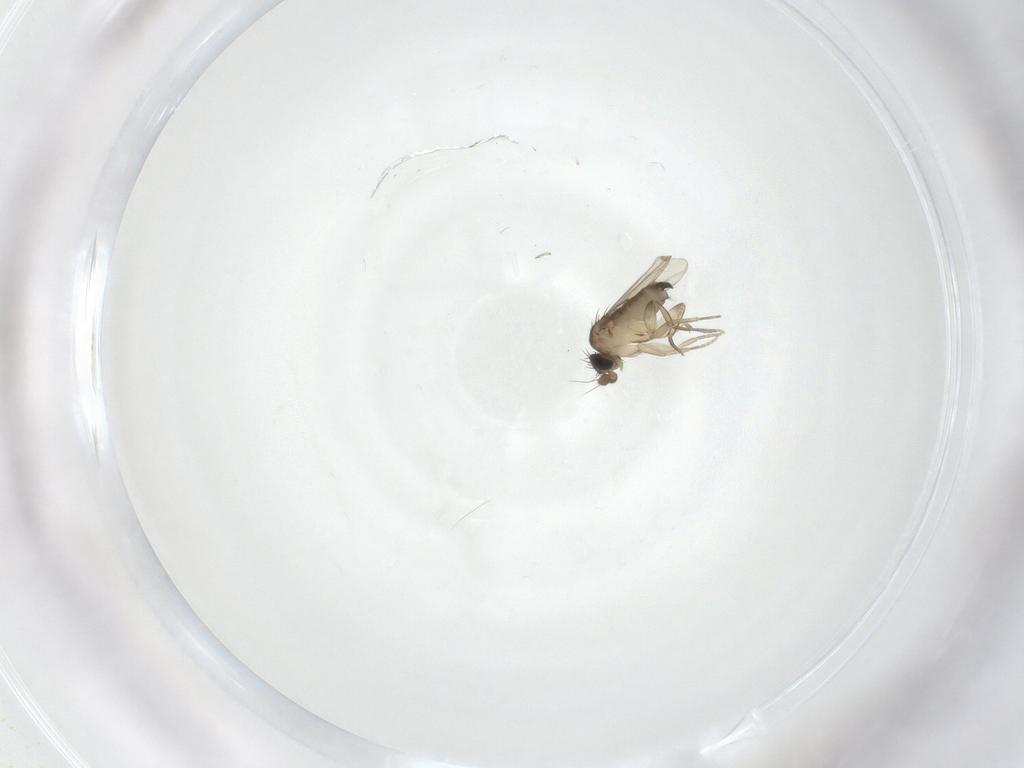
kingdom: Animalia
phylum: Arthropoda
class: Insecta
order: Diptera
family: Phoridae
